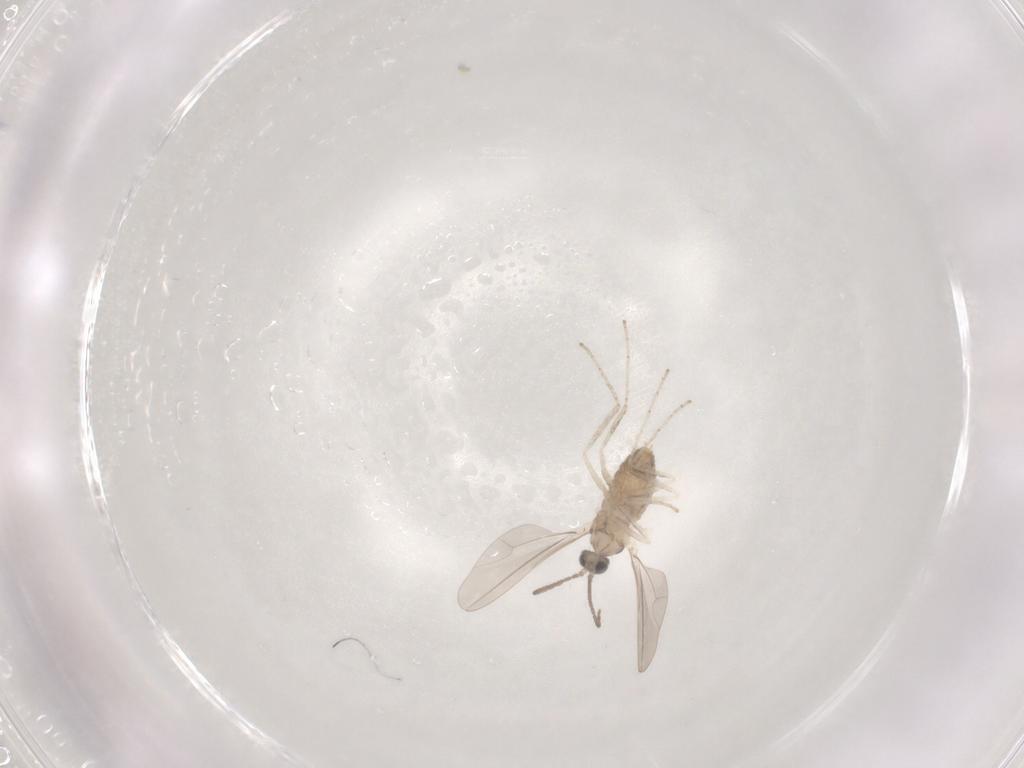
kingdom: Animalia
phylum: Arthropoda
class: Insecta
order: Diptera
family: Cecidomyiidae
